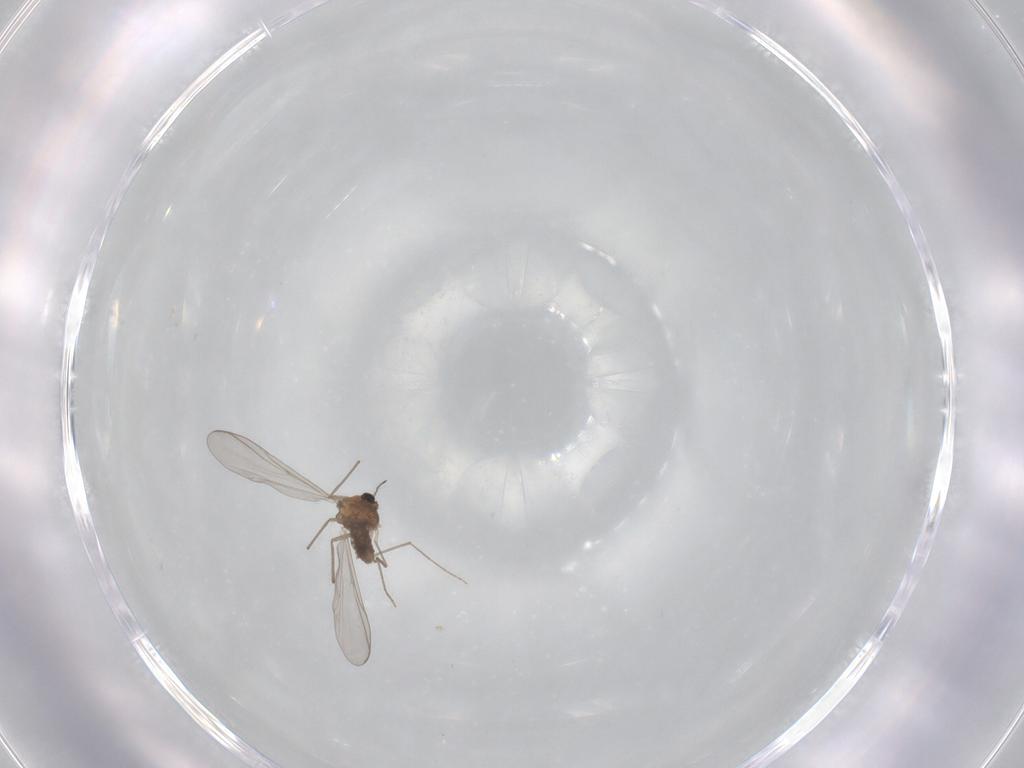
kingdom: Animalia
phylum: Arthropoda
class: Insecta
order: Diptera
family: Chironomidae
